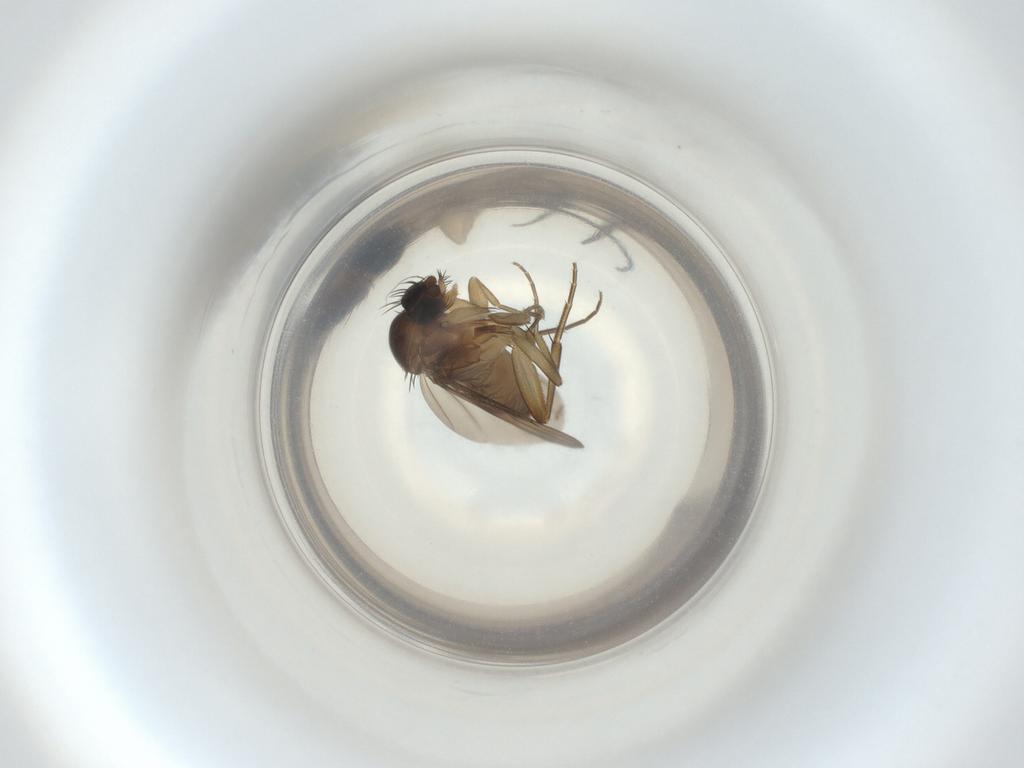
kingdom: Animalia
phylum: Arthropoda
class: Insecta
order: Diptera
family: Phoridae
